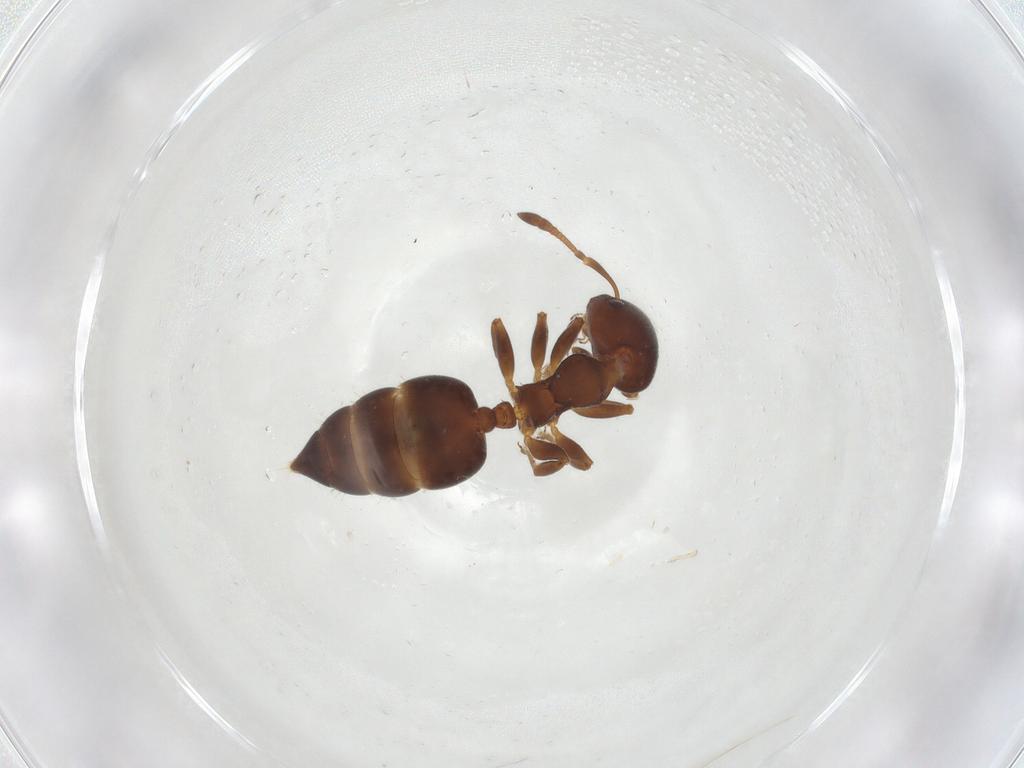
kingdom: Animalia
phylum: Arthropoda
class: Insecta
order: Hymenoptera
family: Formicidae
